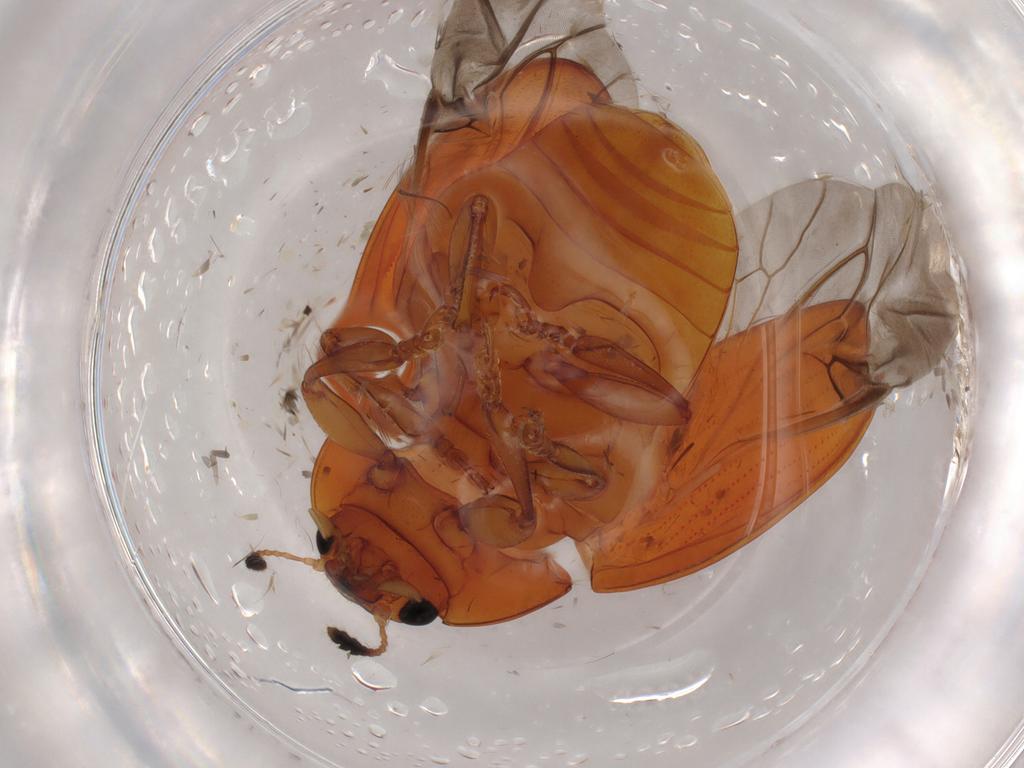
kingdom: Animalia
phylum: Arthropoda
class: Insecta
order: Coleoptera
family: Erotylidae
